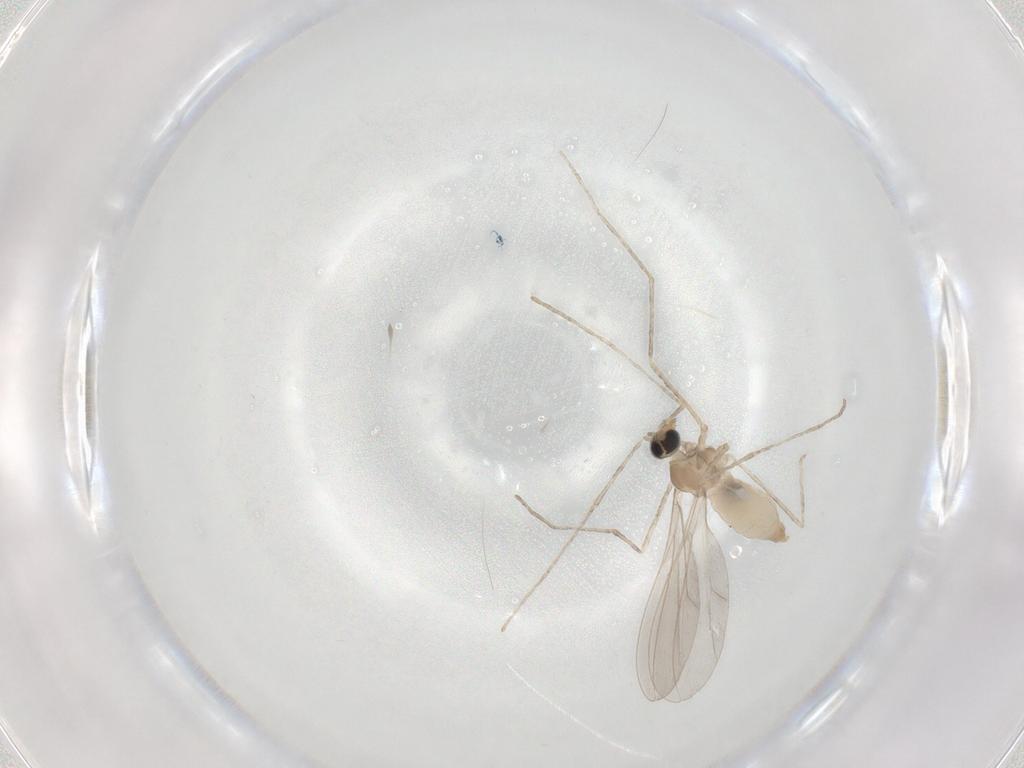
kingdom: Animalia
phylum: Arthropoda
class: Insecta
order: Diptera
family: Cecidomyiidae
